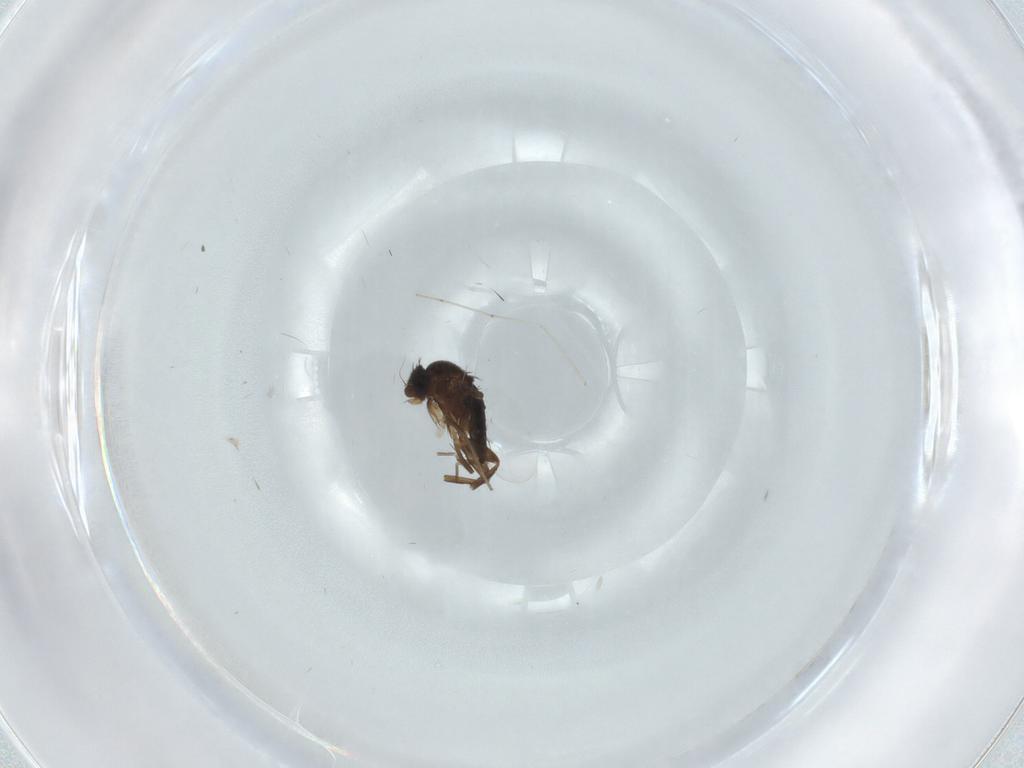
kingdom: Animalia
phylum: Arthropoda
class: Insecta
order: Diptera
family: Phoridae
